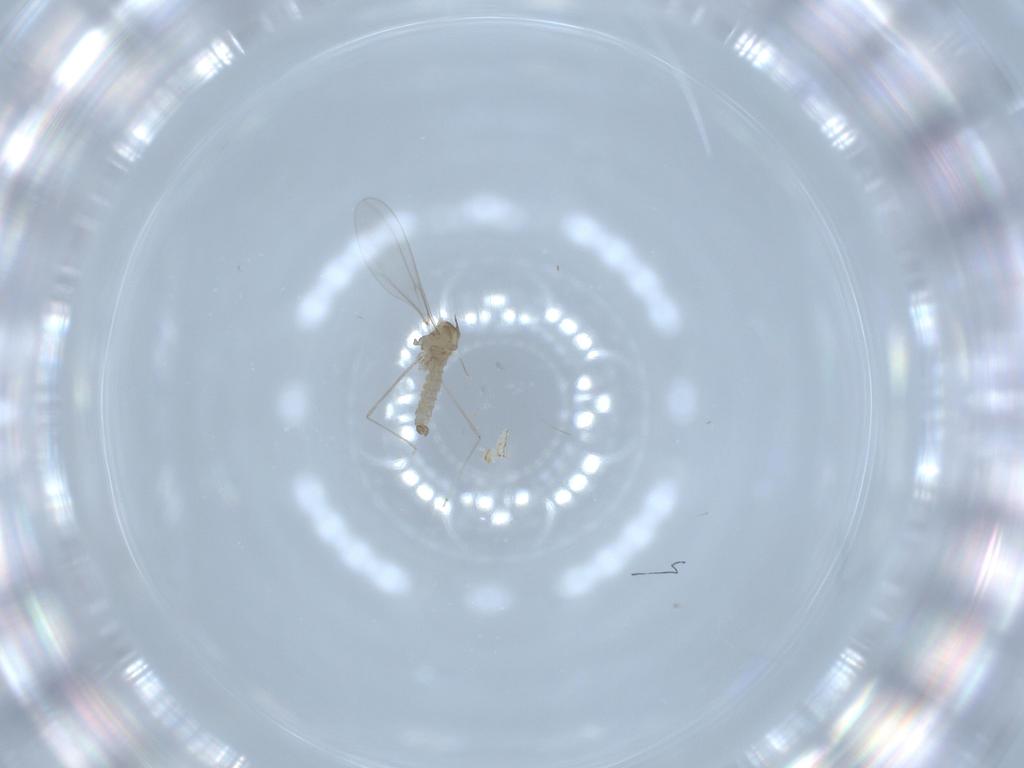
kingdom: Animalia
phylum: Arthropoda
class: Insecta
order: Diptera
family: Cecidomyiidae
